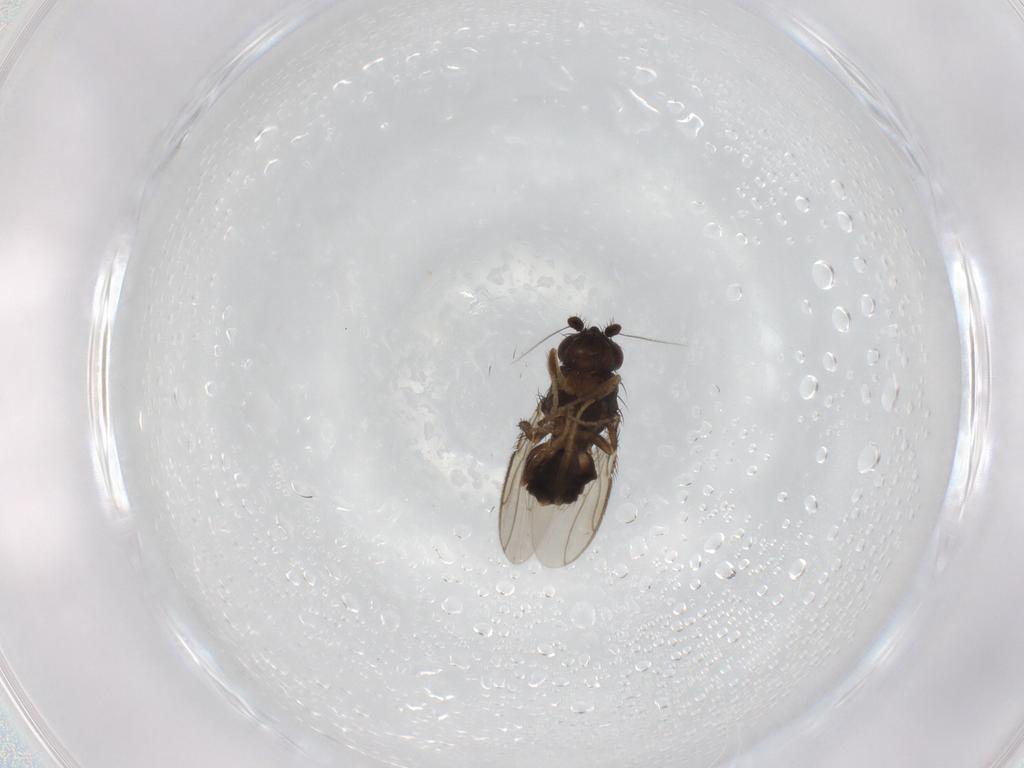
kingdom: Animalia
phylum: Arthropoda
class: Insecta
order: Diptera
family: Sphaeroceridae
